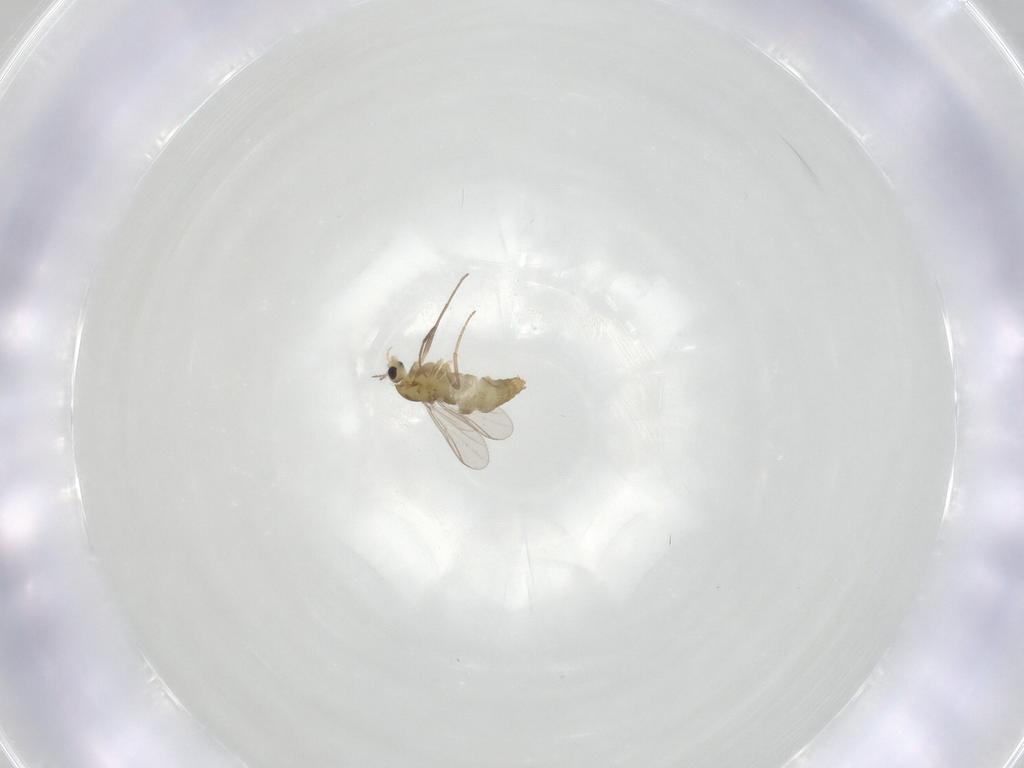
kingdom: Animalia
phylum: Arthropoda
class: Insecta
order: Diptera
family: Chironomidae
